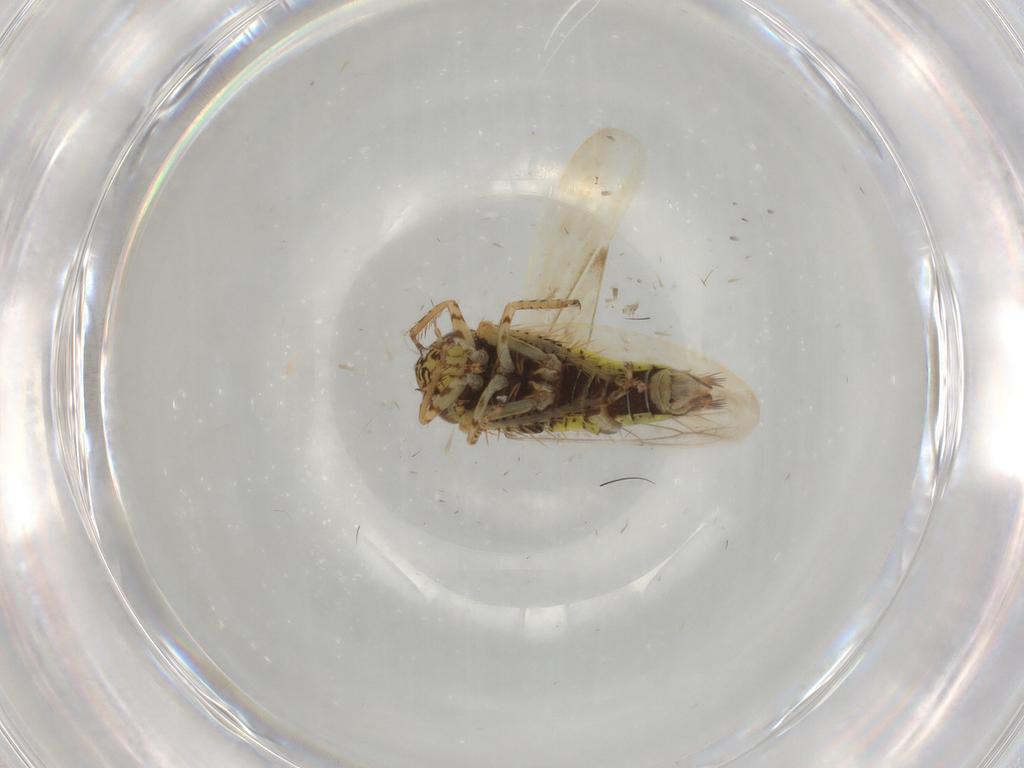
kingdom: Animalia
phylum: Arthropoda
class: Insecta
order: Hemiptera
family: Cicadellidae
